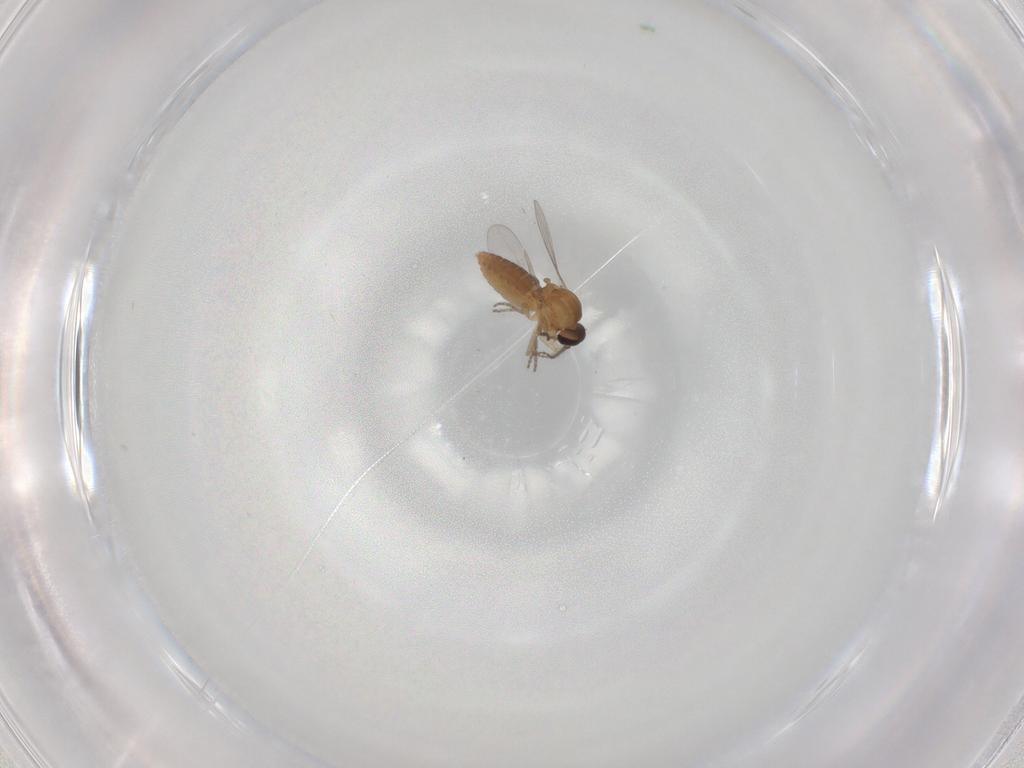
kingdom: Animalia
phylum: Arthropoda
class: Insecta
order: Diptera
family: Ceratopogonidae
